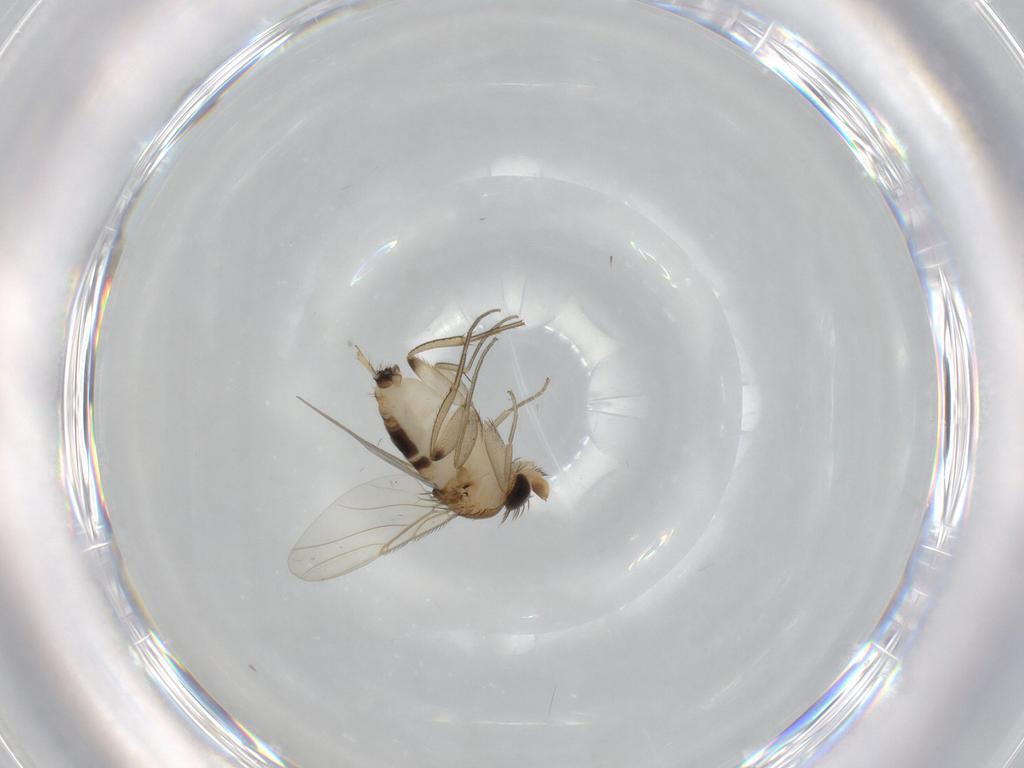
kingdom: Animalia
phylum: Arthropoda
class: Insecta
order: Diptera
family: Phoridae
